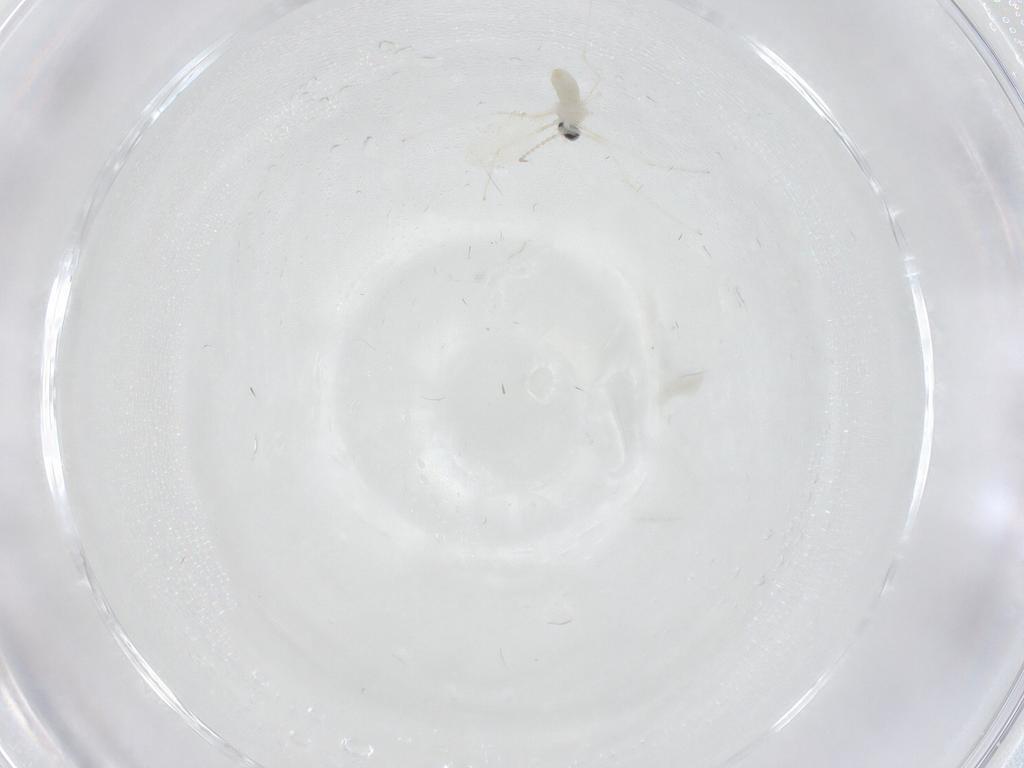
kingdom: Animalia
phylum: Arthropoda
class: Insecta
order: Diptera
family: Cecidomyiidae
